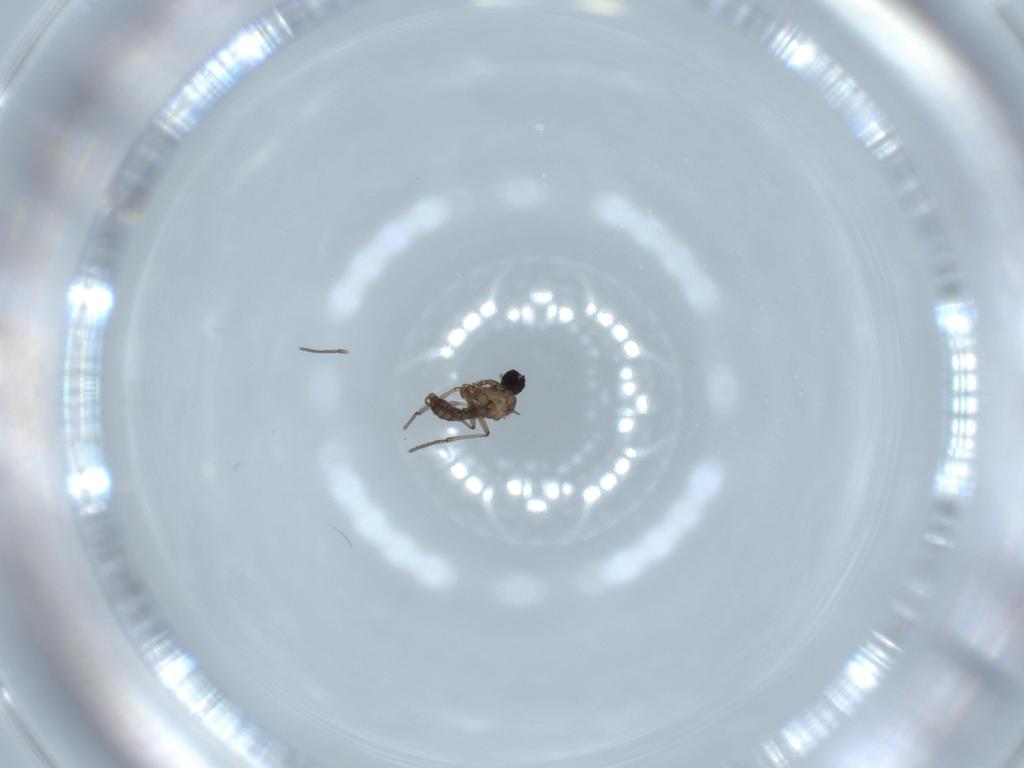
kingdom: Animalia
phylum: Arthropoda
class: Insecta
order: Diptera
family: Sciaridae
